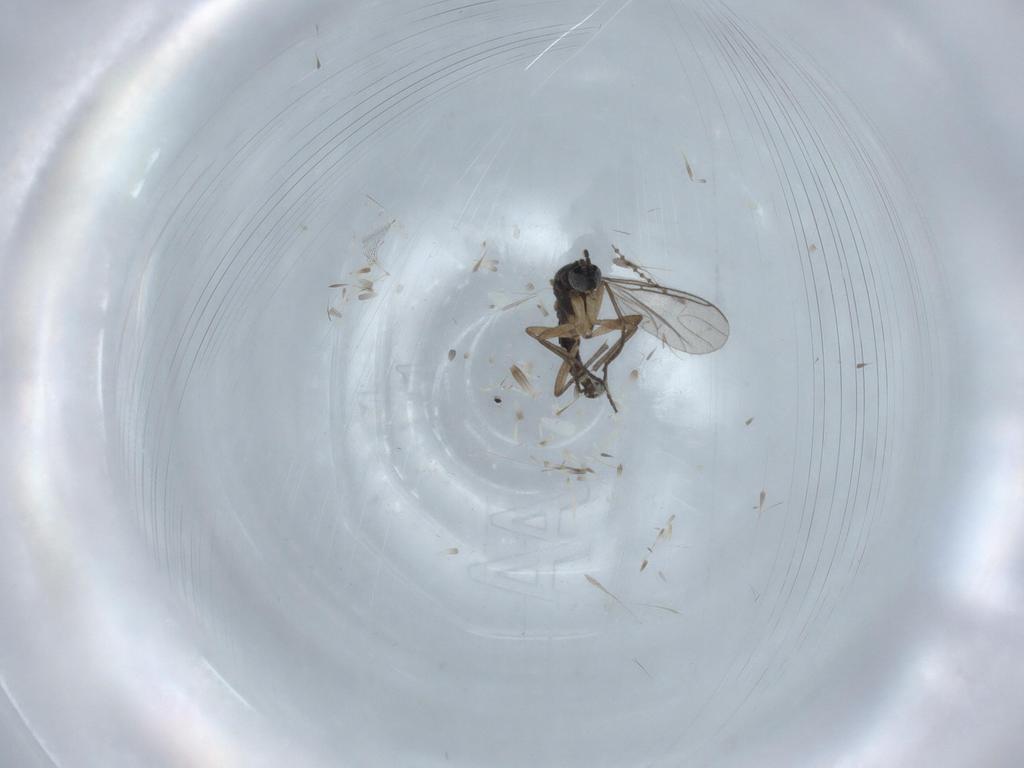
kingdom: Animalia
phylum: Arthropoda
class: Insecta
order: Diptera
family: Sciaridae
